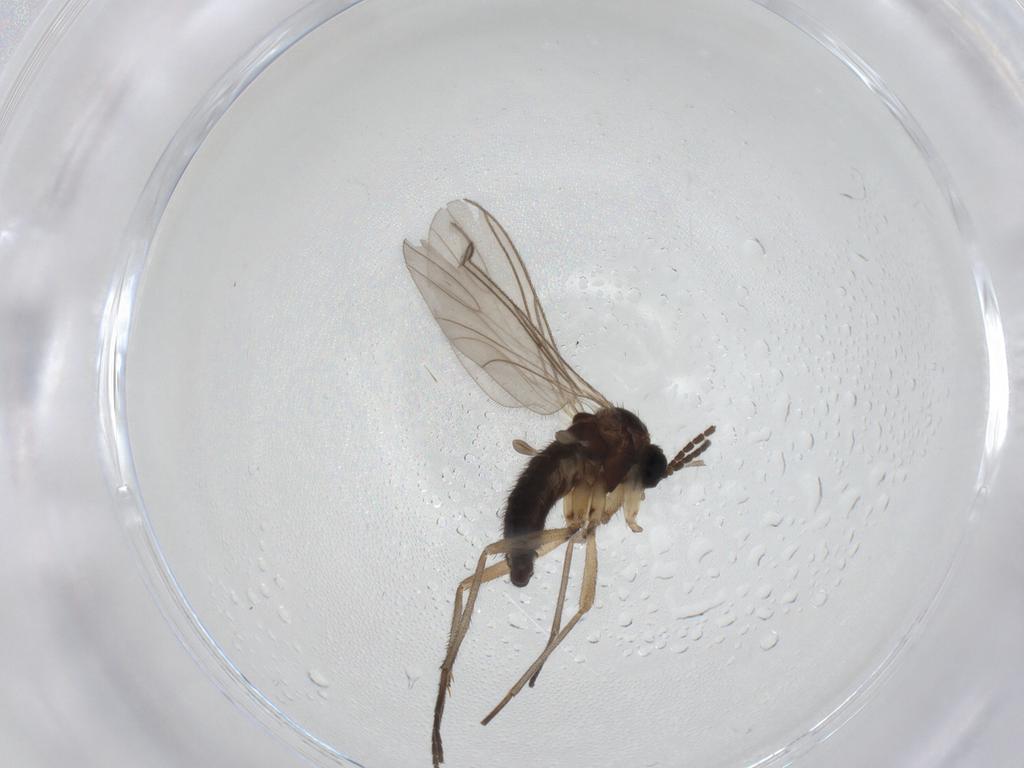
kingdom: Animalia
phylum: Arthropoda
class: Insecta
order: Diptera
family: Sciaridae
